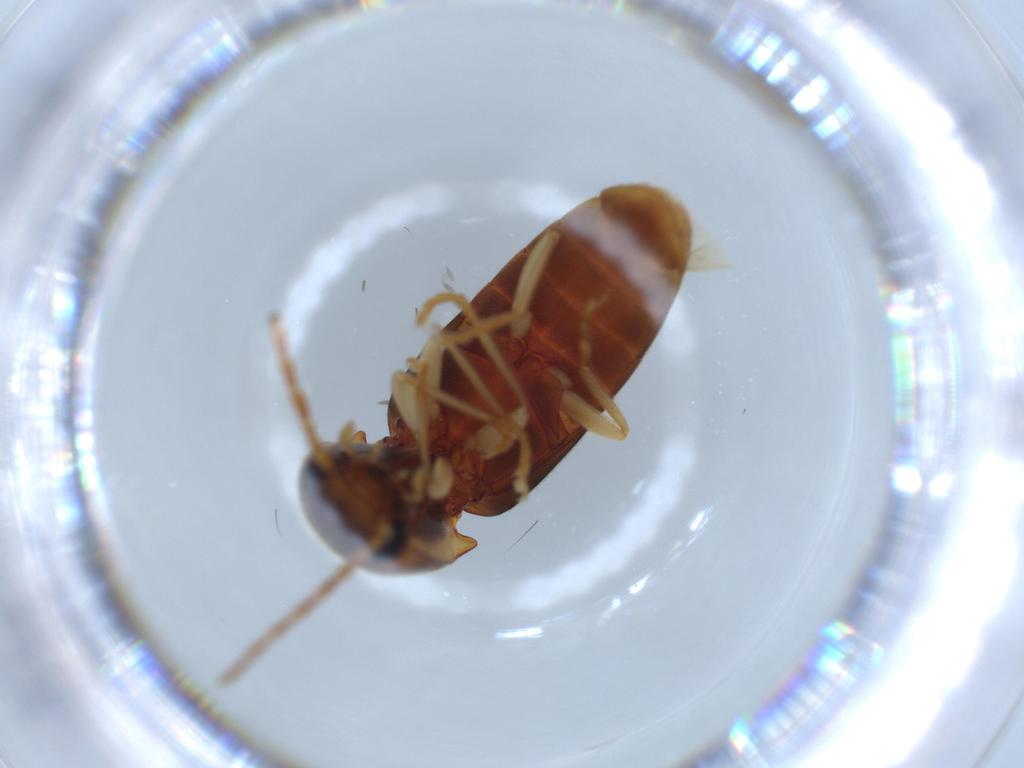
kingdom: Animalia
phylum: Arthropoda
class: Insecta
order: Coleoptera
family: Elateridae
